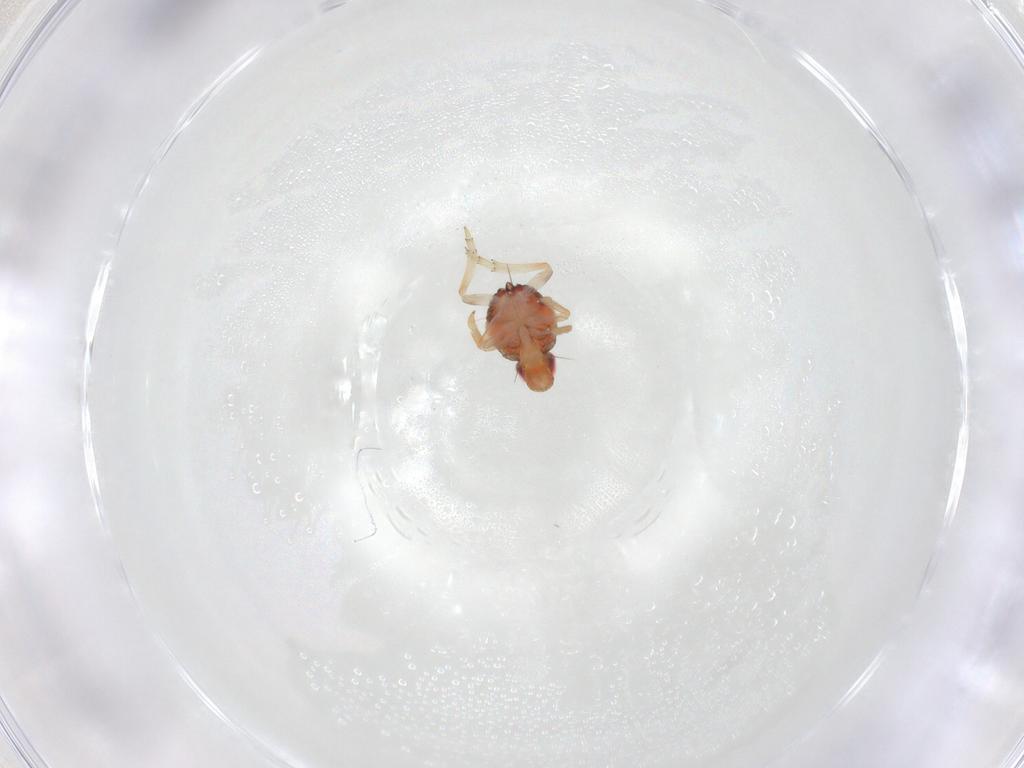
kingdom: Animalia
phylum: Arthropoda
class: Insecta
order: Hemiptera
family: Issidae
